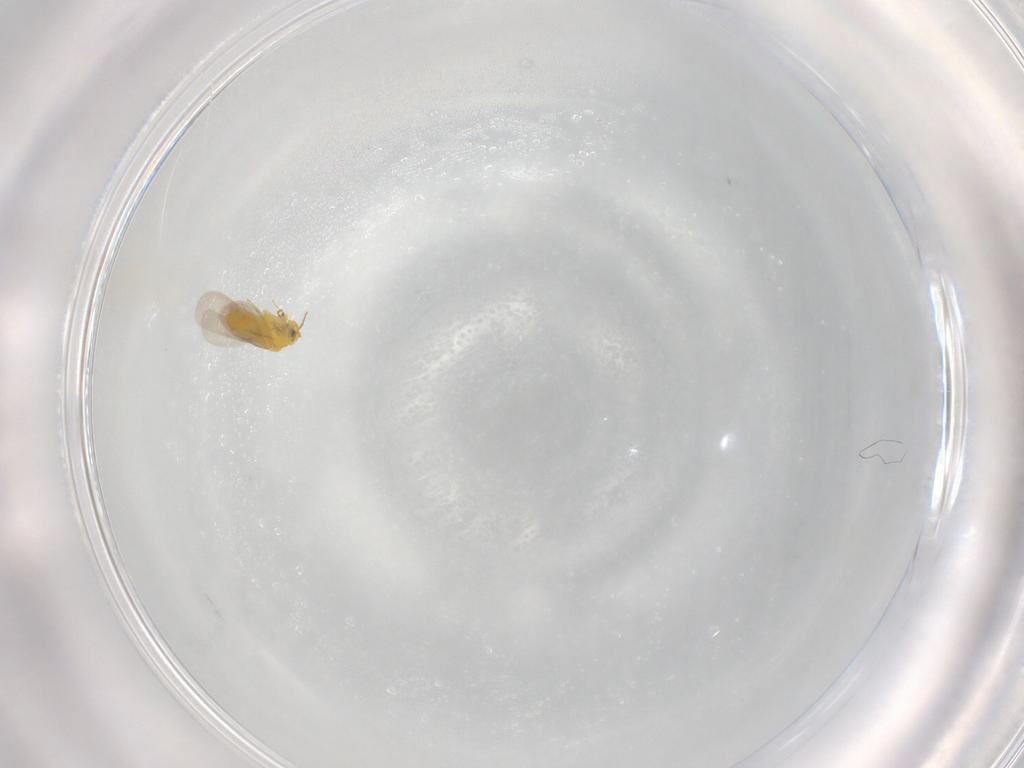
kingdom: Animalia
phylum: Arthropoda
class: Insecta
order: Hemiptera
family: Aleyrodidae
